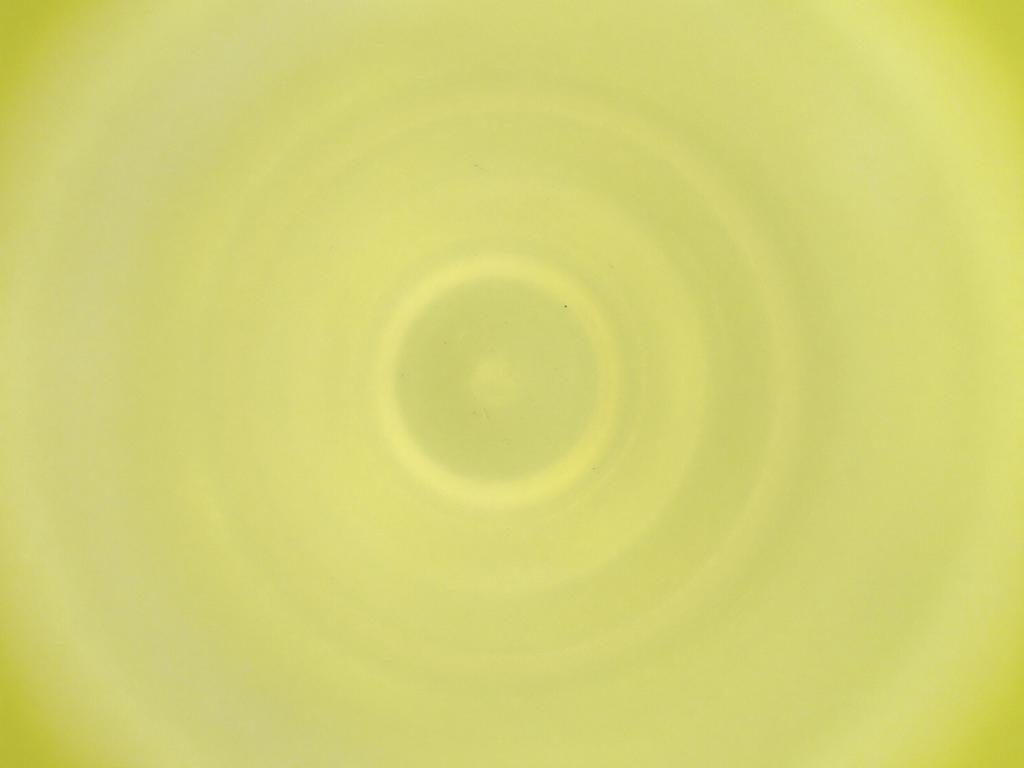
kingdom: Animalia
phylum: Arthropoda
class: Insecta
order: Diptera
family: Cecidomyiidae
